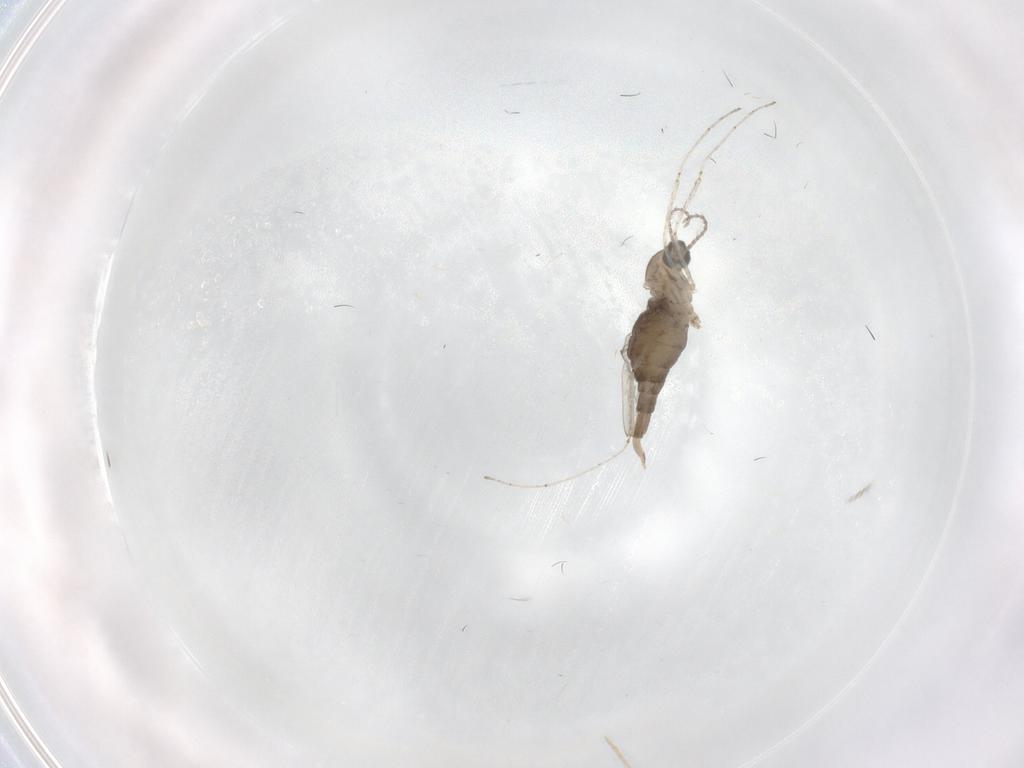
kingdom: Animalia
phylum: Arthropoda
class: Insecta
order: Diptera
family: Cecidomyiidae
